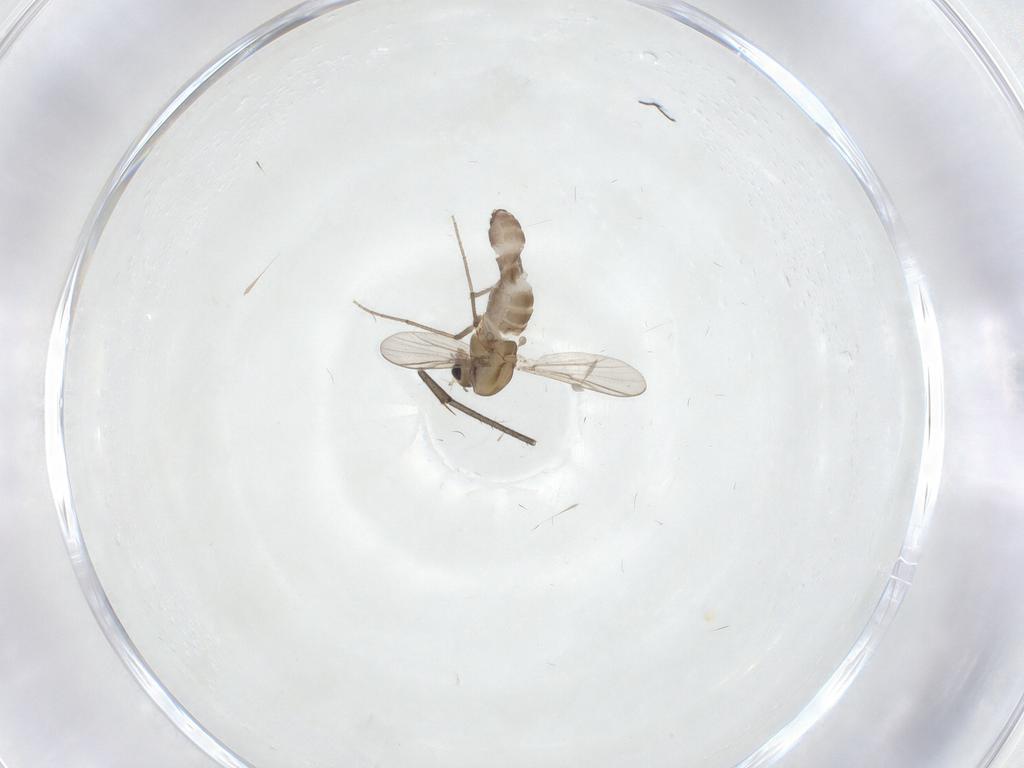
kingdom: Animalia
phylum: Arthropoda
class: Insecta
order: Diptera
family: Chironomidae
